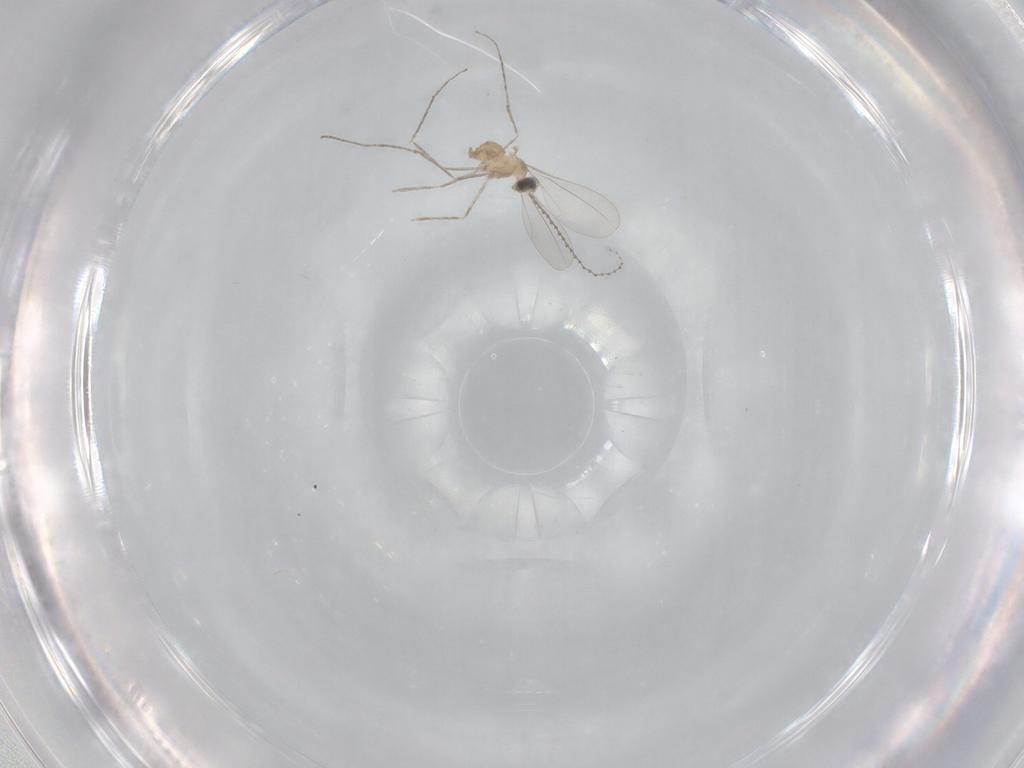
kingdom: Animalia
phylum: Arthropoda
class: Insecta
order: Diptera
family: Cecidomyiidae
